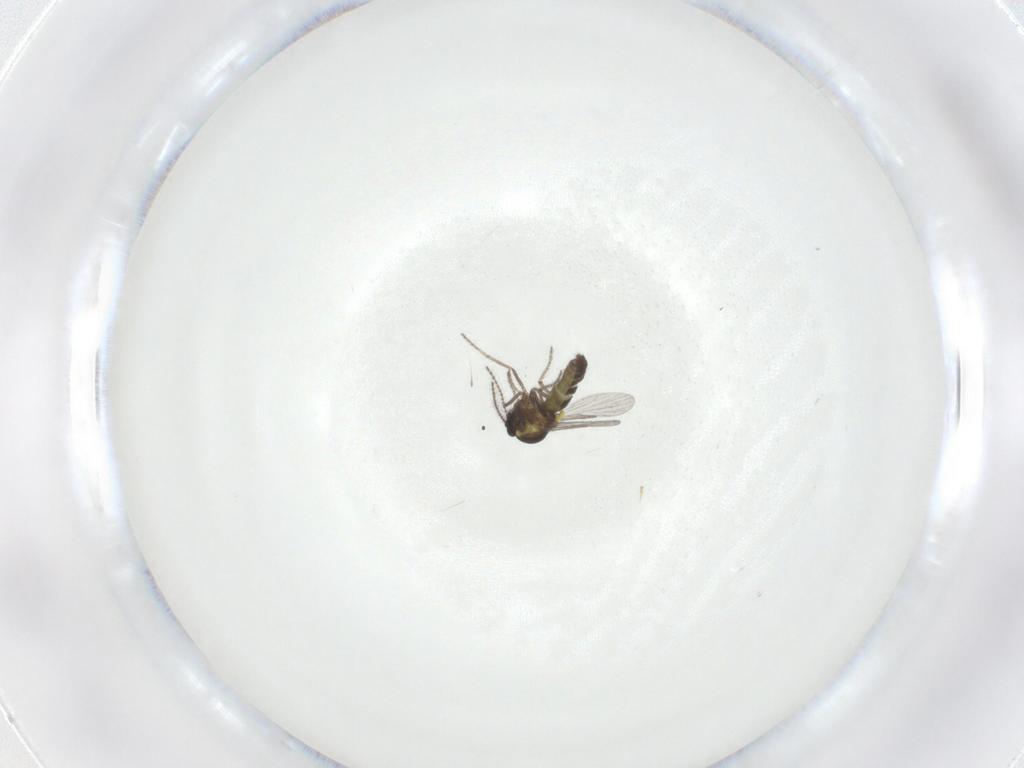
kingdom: Animalia
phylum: Arthropoda
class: Insecta
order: Diptera
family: Ceratopogonidae
